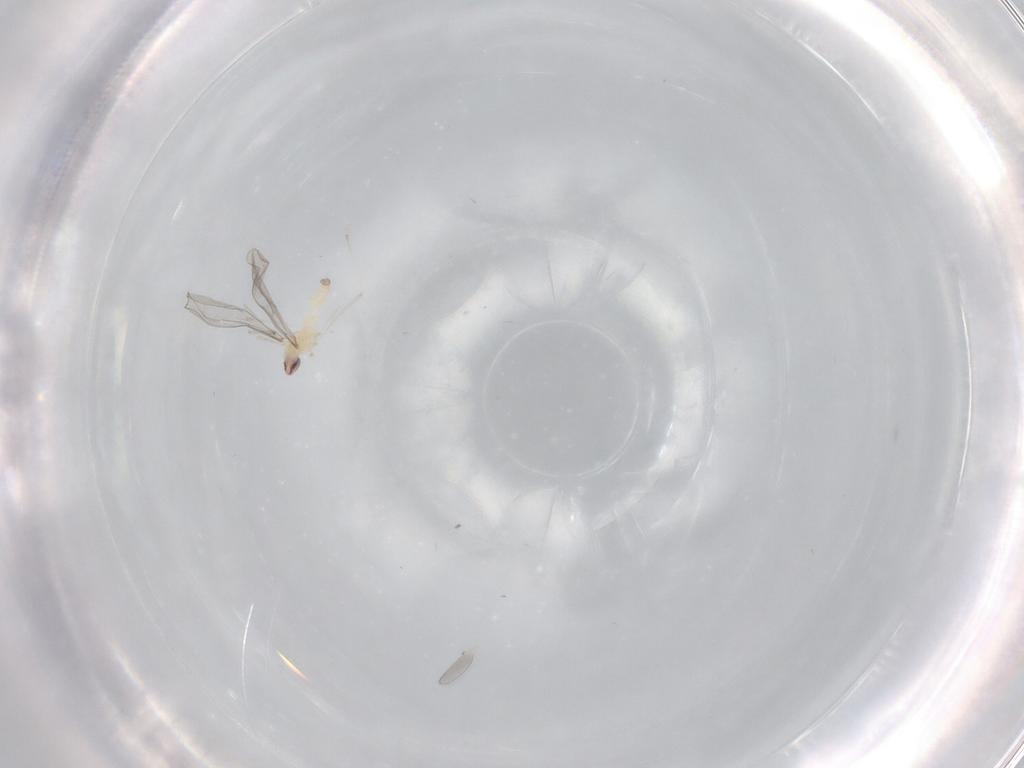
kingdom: Animalia
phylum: Arthropoda
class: Insecta
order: Diptera
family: Cecidomyiidae
